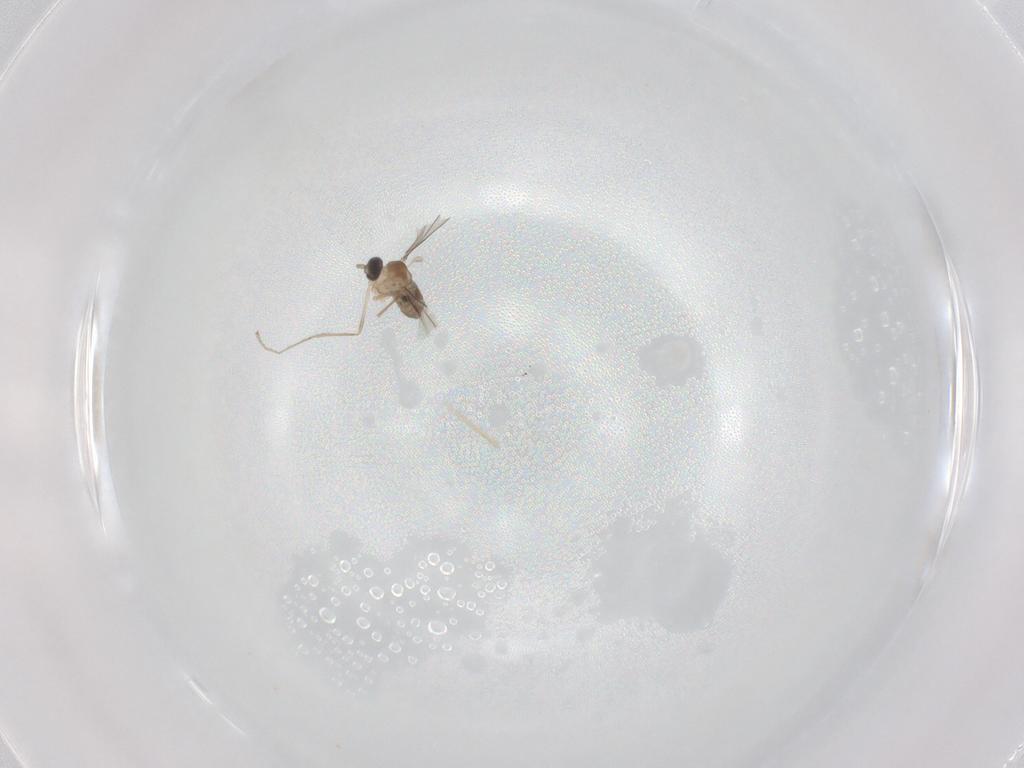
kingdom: Animalia
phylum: Arthropoda
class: Insecta
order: Diptera
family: Cecidomyiidae
